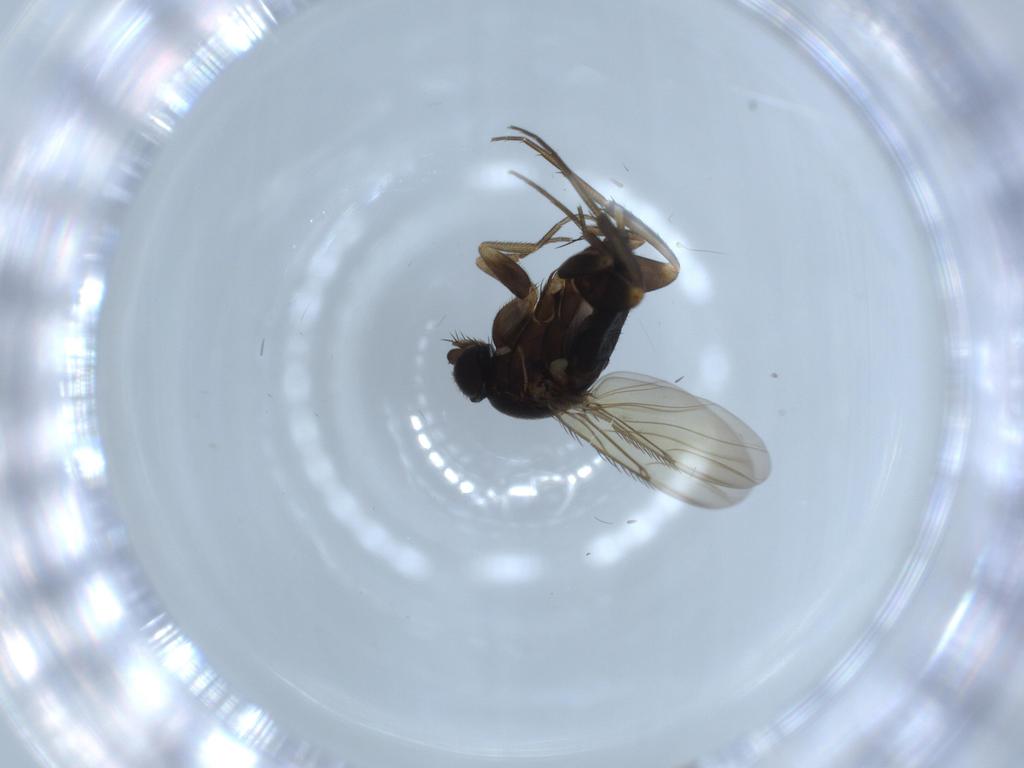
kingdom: Animalia
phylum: Arthropoda
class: Insecta
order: Diptera
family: Phoridae
